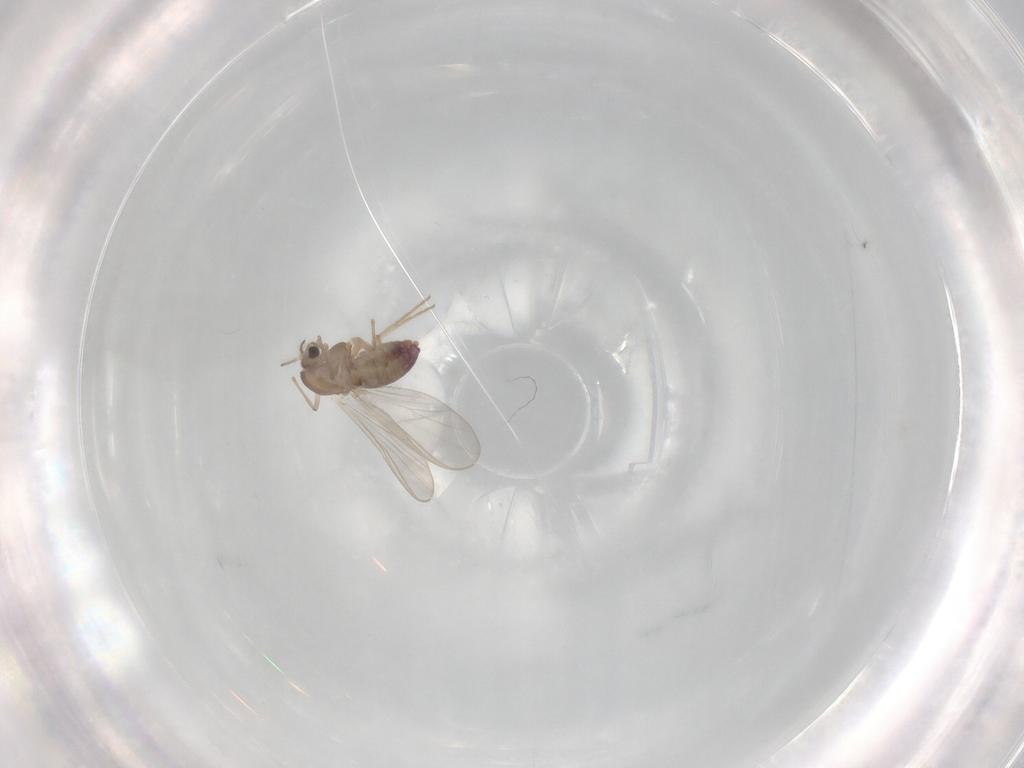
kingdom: Animalia
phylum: Arthropoda
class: Insecta
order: Diptera
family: Chironomidae
